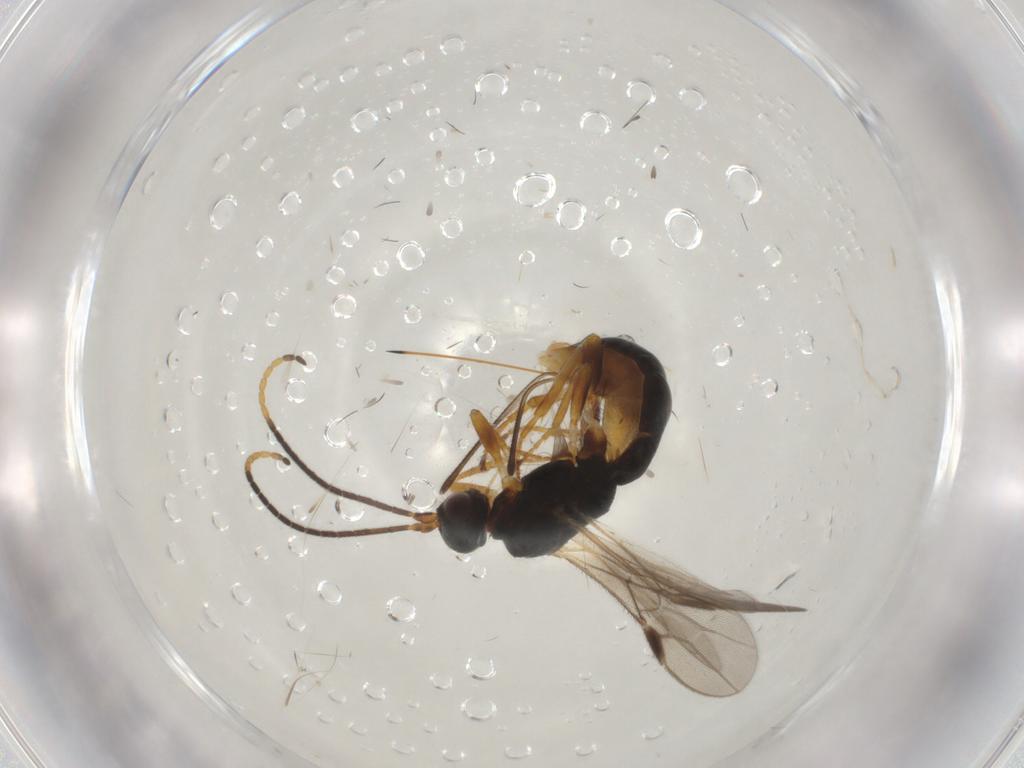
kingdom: Animalia
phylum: Arthropoda
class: Insecta
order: Hymenoptera
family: Braconidae
